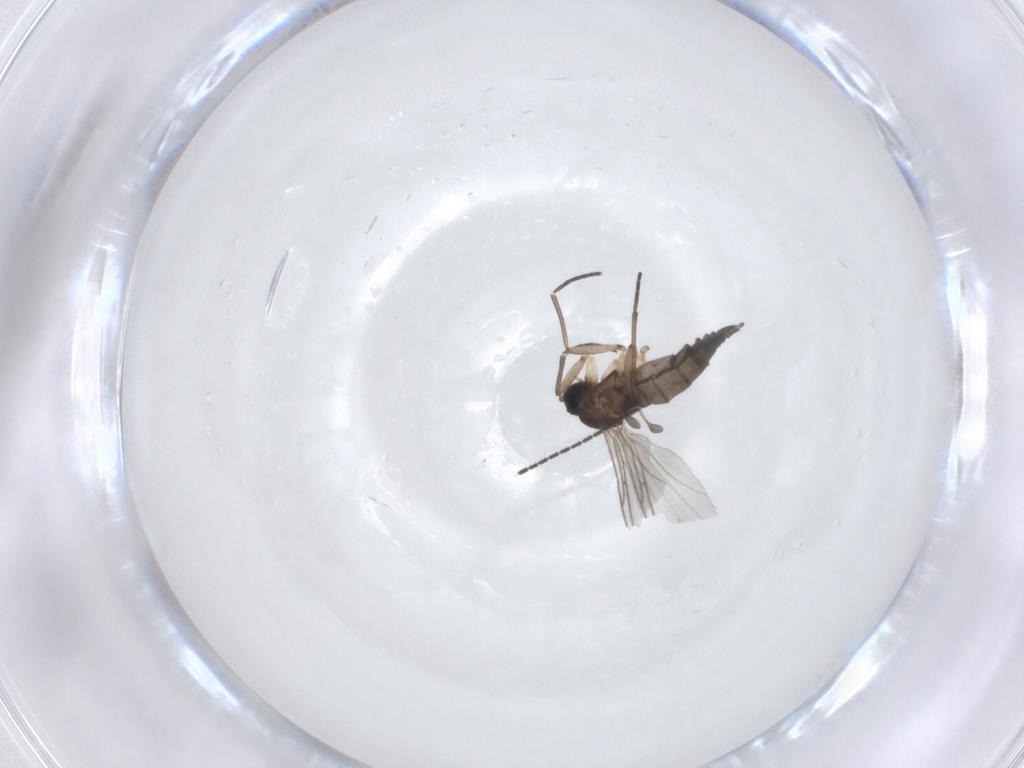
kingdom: Animalia
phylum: Arthropoda
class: Insecta
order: Diptera
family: Sciaridae
